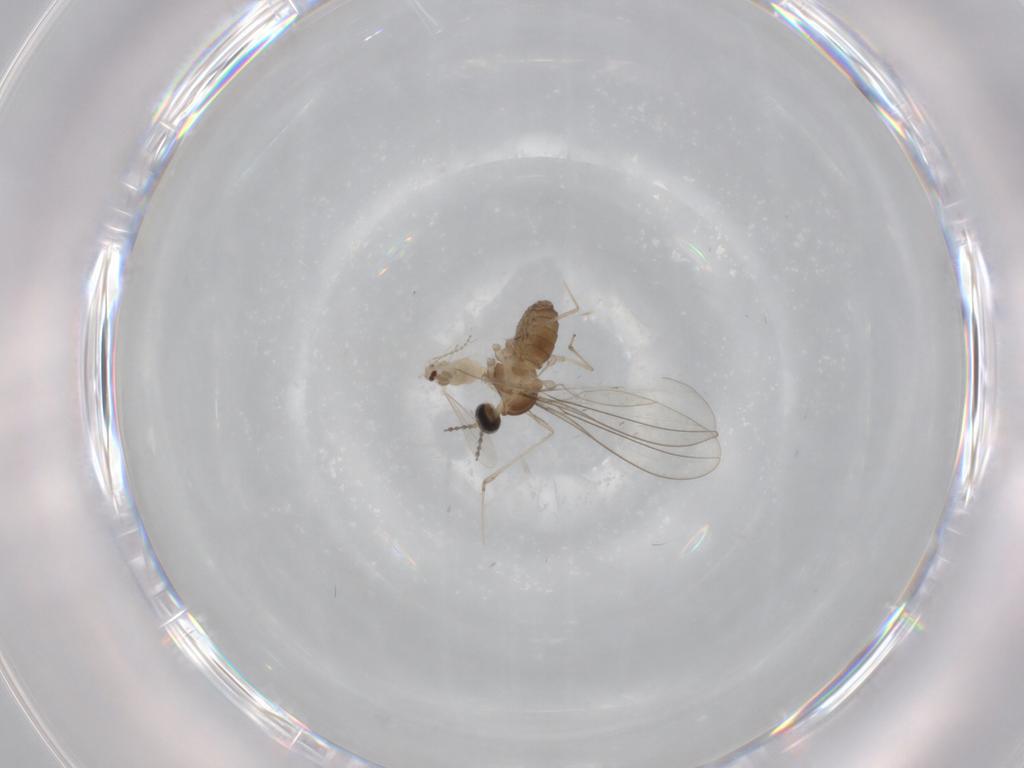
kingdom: Animalia
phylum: Arthropoda
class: Insecta
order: Diptera
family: Cecidomyiidae
